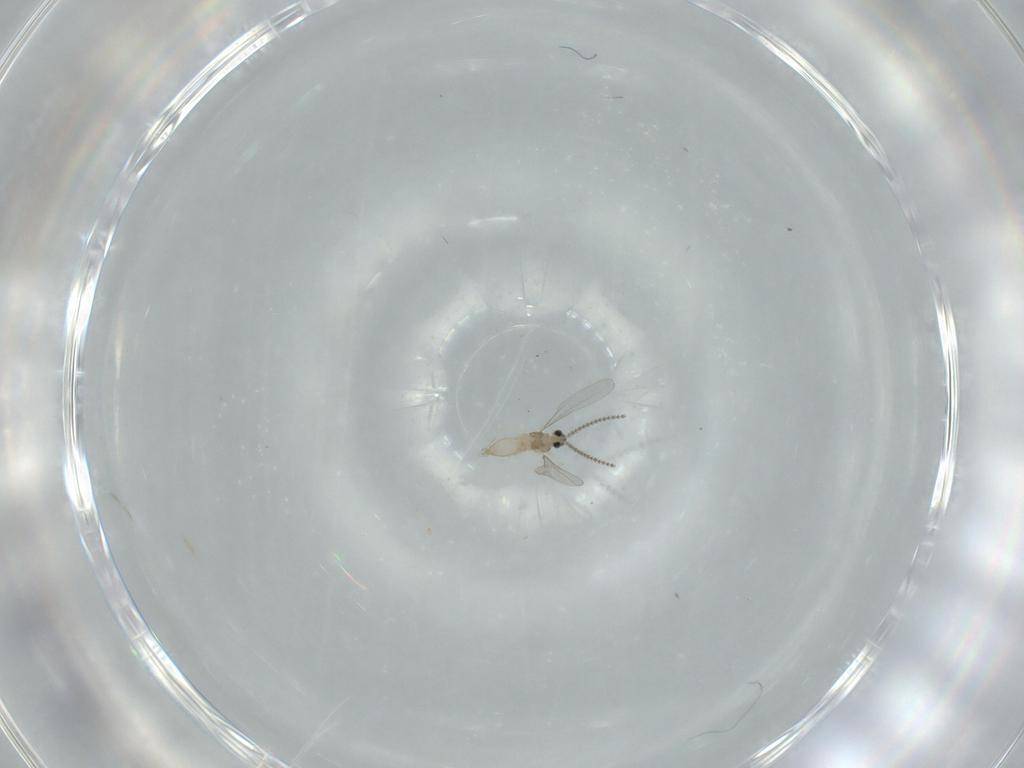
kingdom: Animalia
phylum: Arthropoda
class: Insecta
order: Diptera
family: Cecidomyiidae
